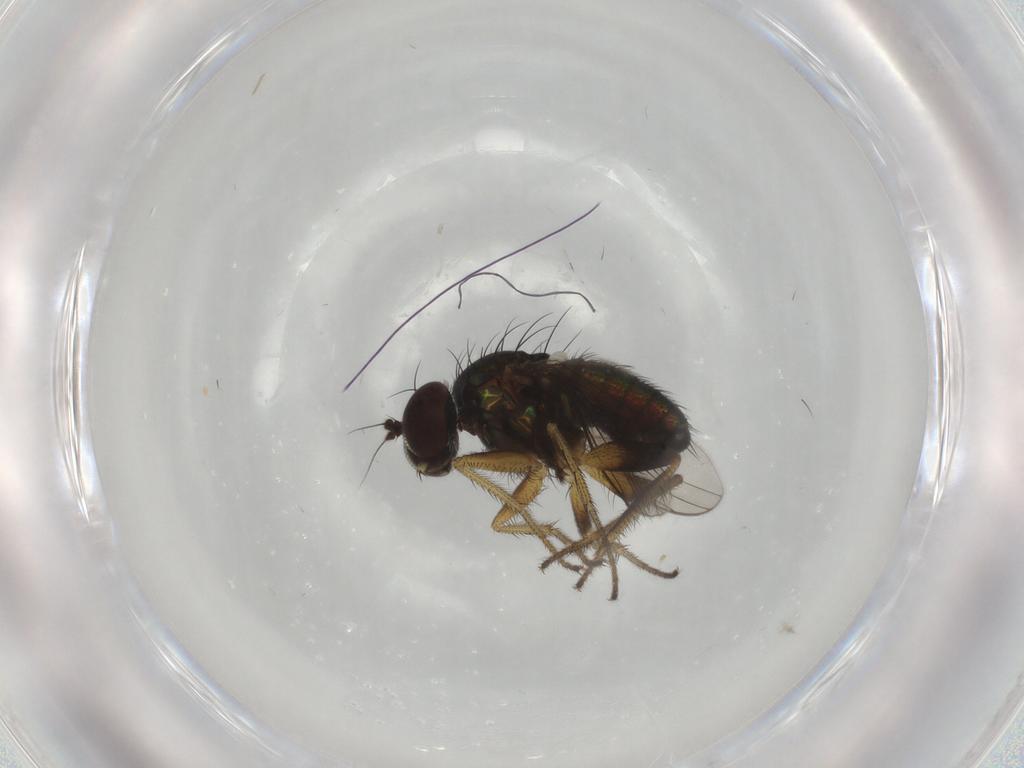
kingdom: Animalia
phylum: Arthropoda
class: Insecta
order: Diptera
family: Dolichopodidae
